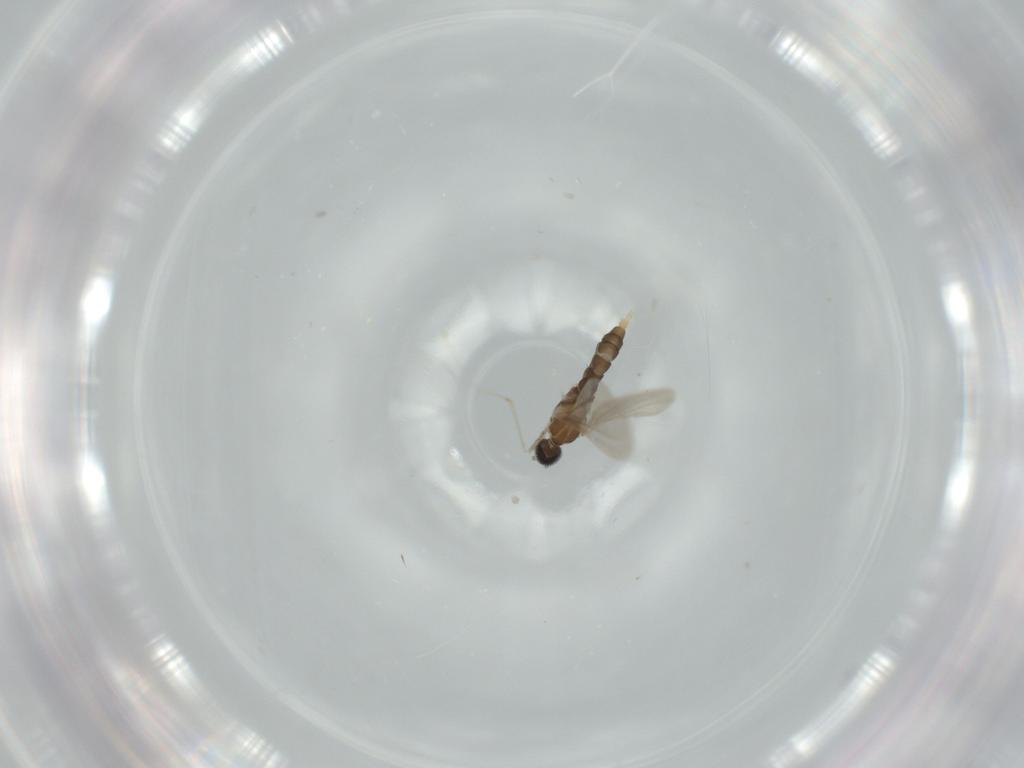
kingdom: Animalia
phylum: Arthropoda
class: Insecta
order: Diptera
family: Cecidomyiidae
